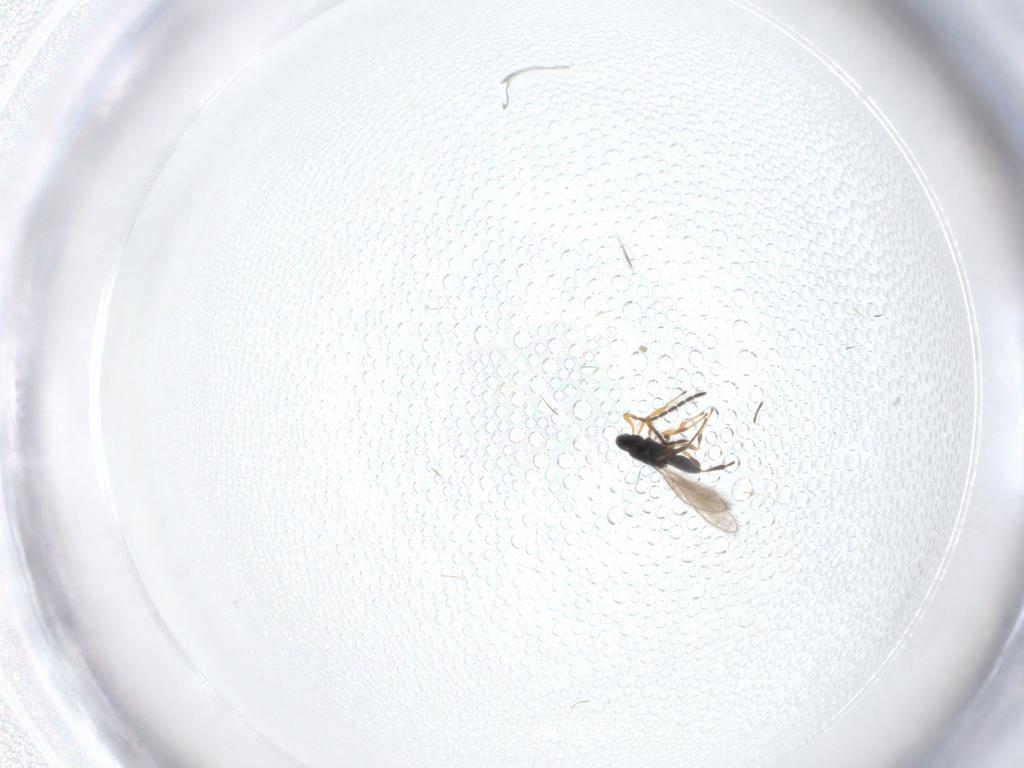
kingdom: Animalia
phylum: Arthropoda
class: Insecta
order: Hymenoptera
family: Platygastridae
